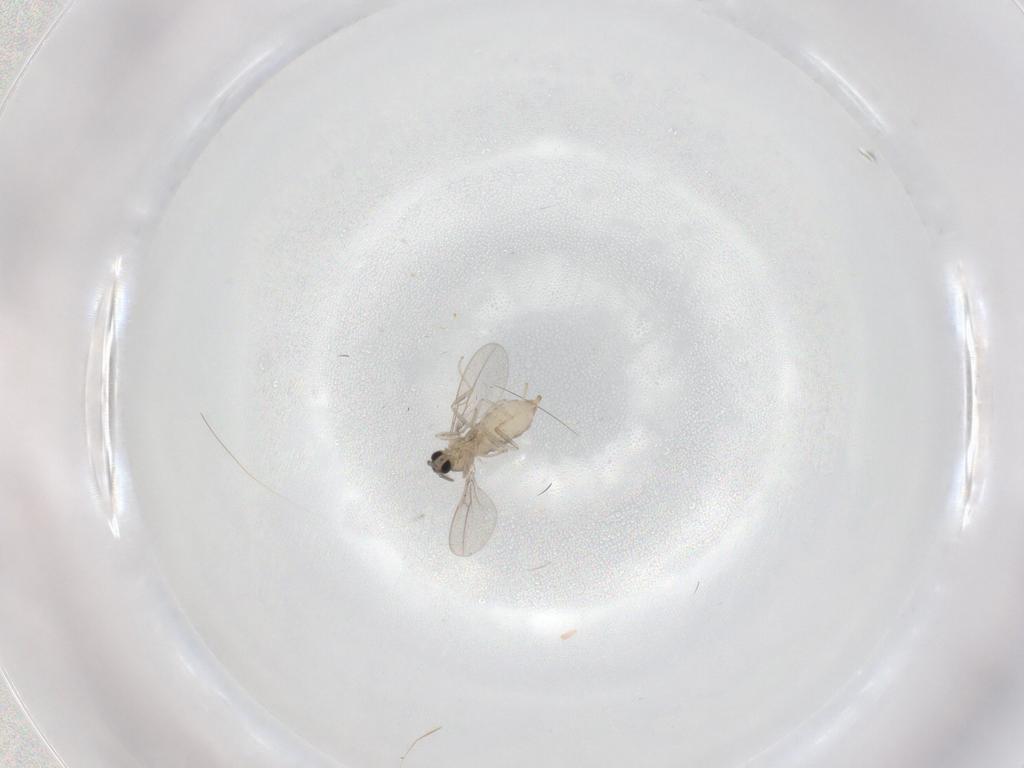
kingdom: Animalia
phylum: Arthropoda
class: Insecta
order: Diptera
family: Cecidomyiidae
